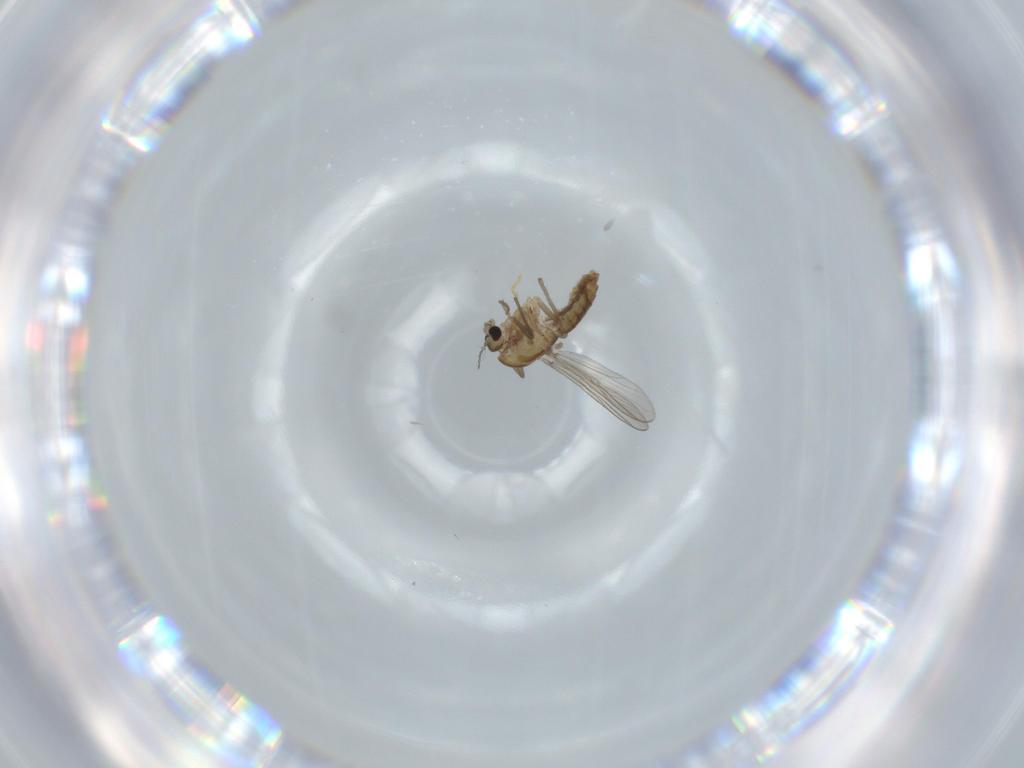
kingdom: Animalia
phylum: Arthropoda
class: Insecta
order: Diptera
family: Chironomidae
